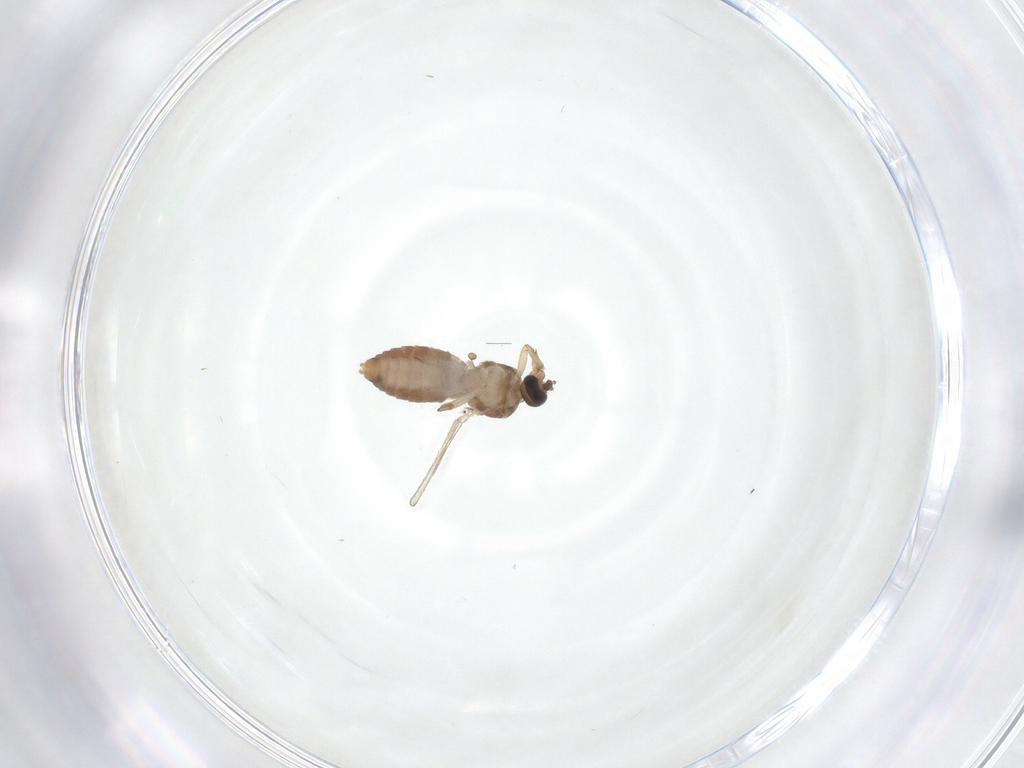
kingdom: Animalia
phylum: Arthropoda
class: Insecta
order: Diptera
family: Ceratopogonidae
